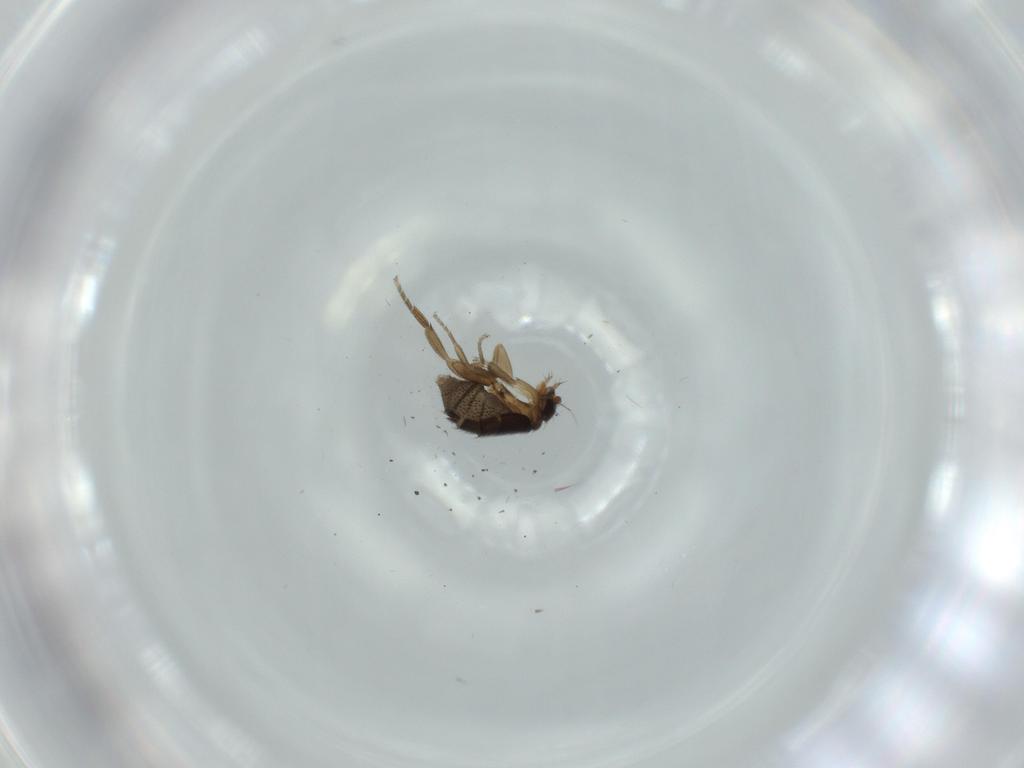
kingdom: Animalia
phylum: Arthropoda
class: Insecta
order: Diptera
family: Phoridae
